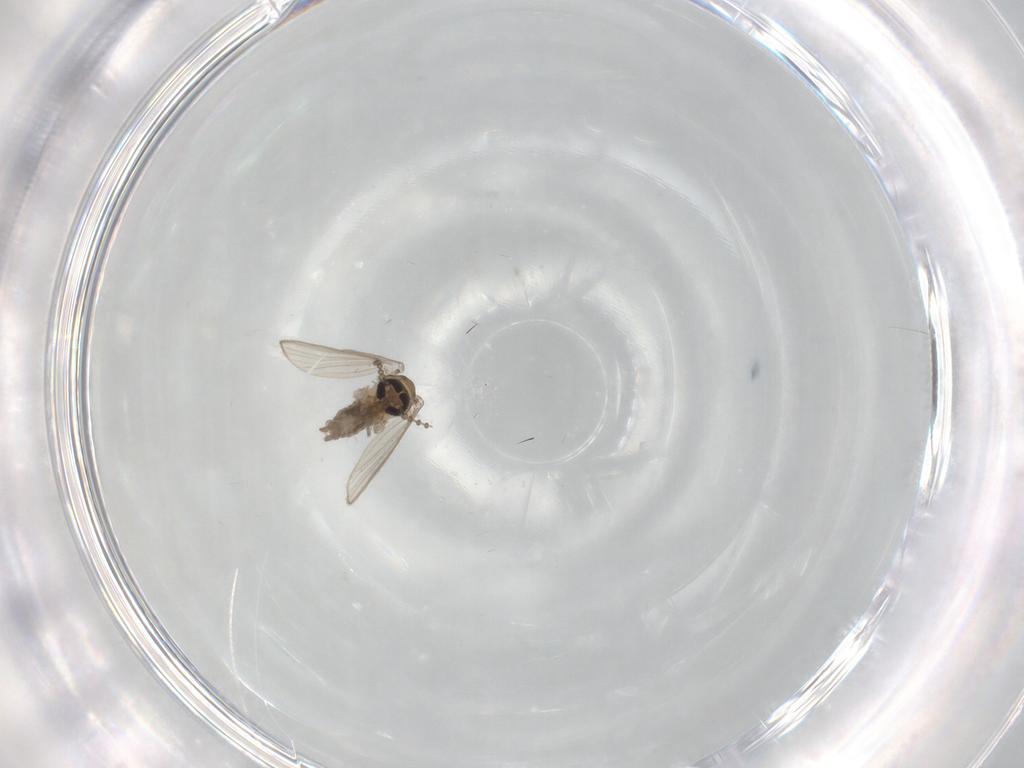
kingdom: Animalia
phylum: Arthropoda
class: Insecta
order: Diptera
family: Psychodidae
